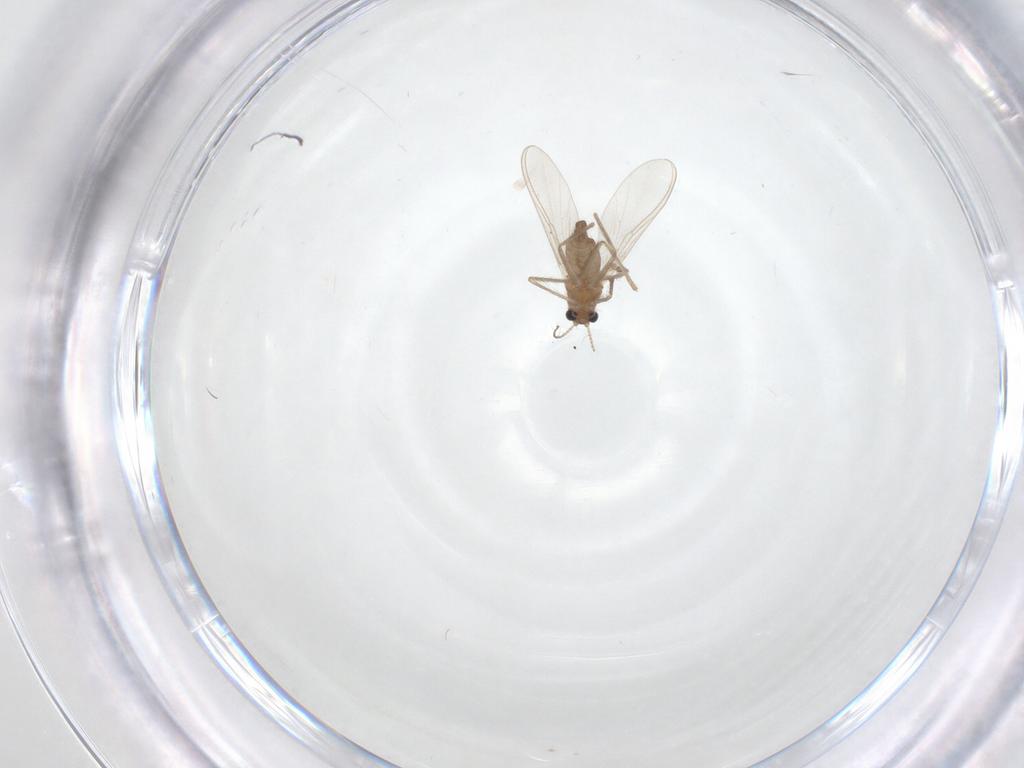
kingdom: Animalia
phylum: Arthropoda
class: Insecta
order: Diptera
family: Chironomidae
